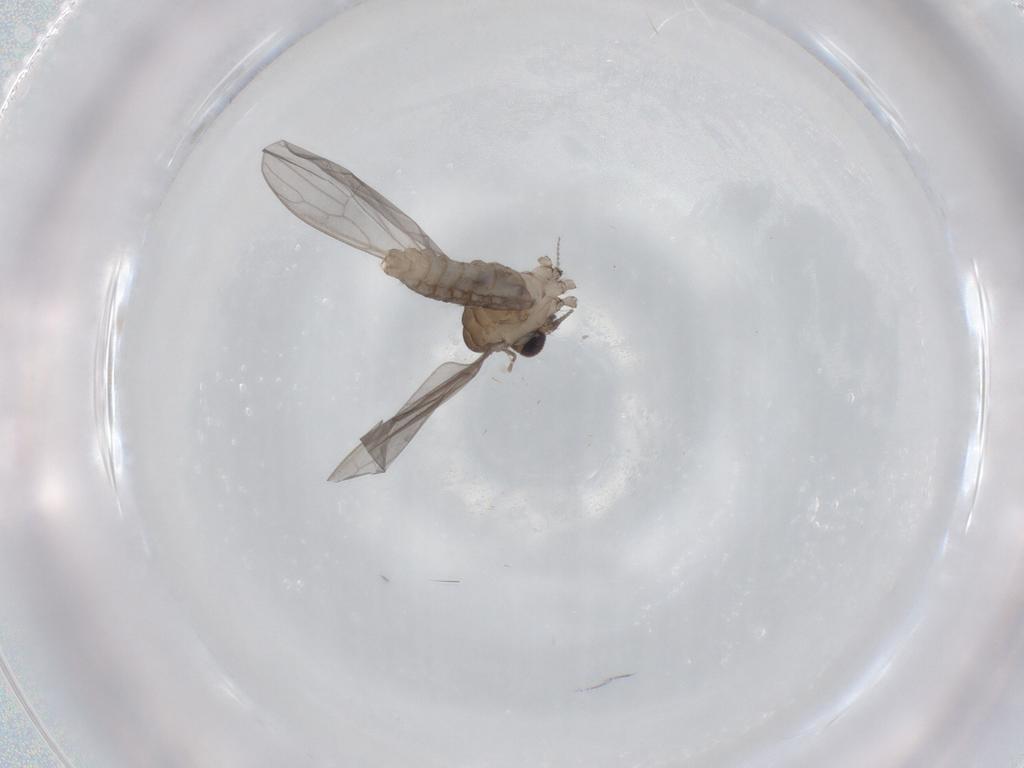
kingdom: Animalia
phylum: Arthropoda
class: Insecta
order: Diptera
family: Limoniidae
